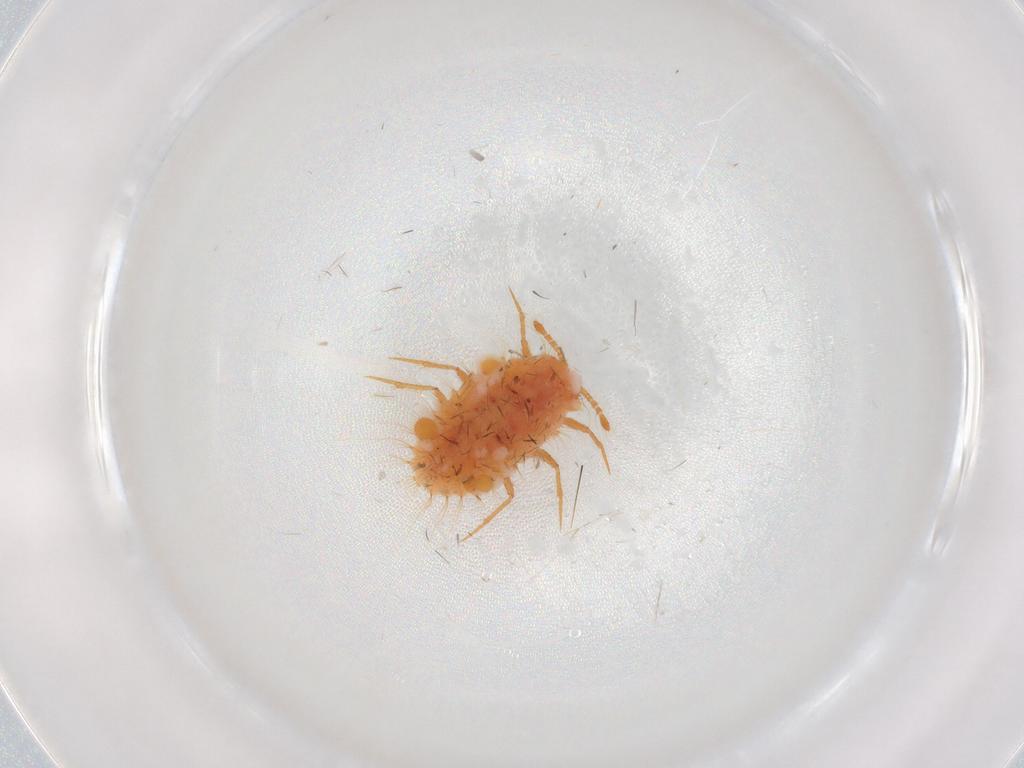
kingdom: Animalia
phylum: Arthropoda
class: Insecta
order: Hemiptera
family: Coccoidea_incertae_sedis
